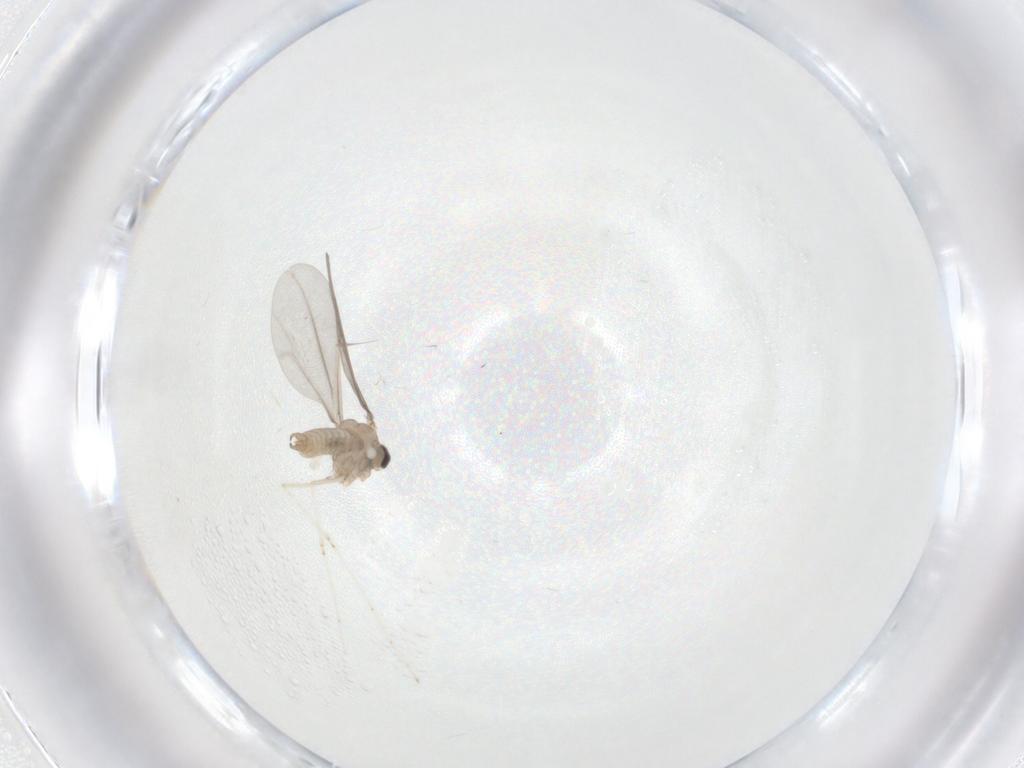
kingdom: Animalia
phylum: Arthropoda
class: Insecta
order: Diptera
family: Cecidomyiidae
